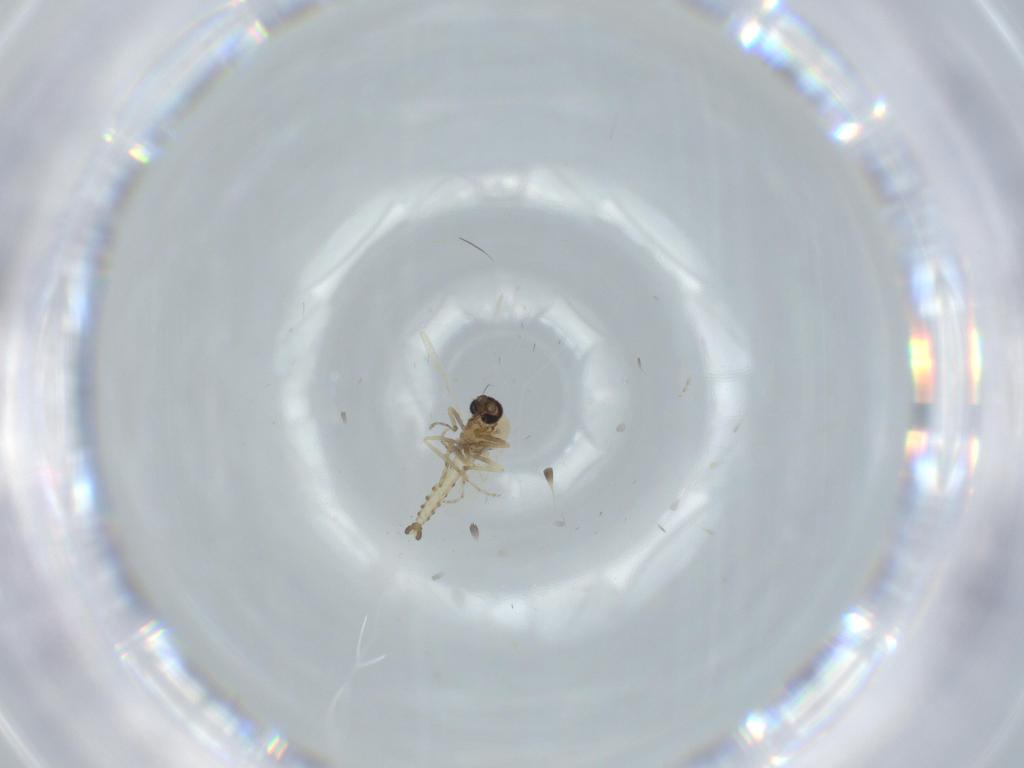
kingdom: Animalia
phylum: Arthropoda
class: Insecta
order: Diptera
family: Ceratopogonidae
